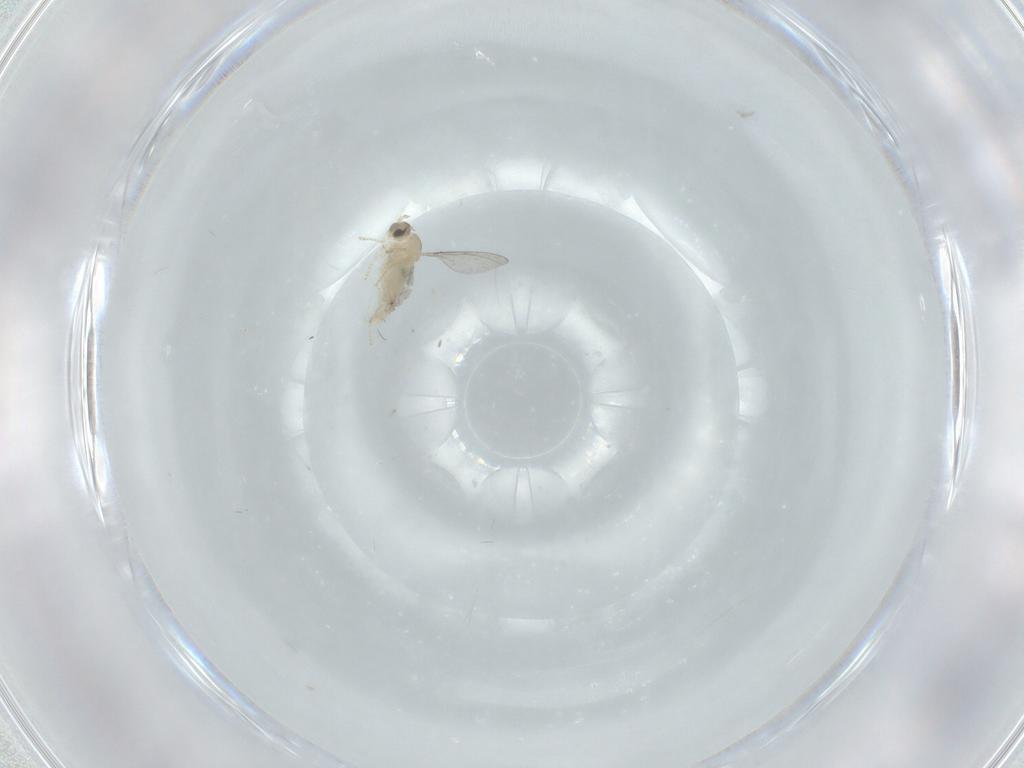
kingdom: Animalia
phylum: Arthropoda
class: Insecta
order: Diptera
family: Cecidomyiidae
